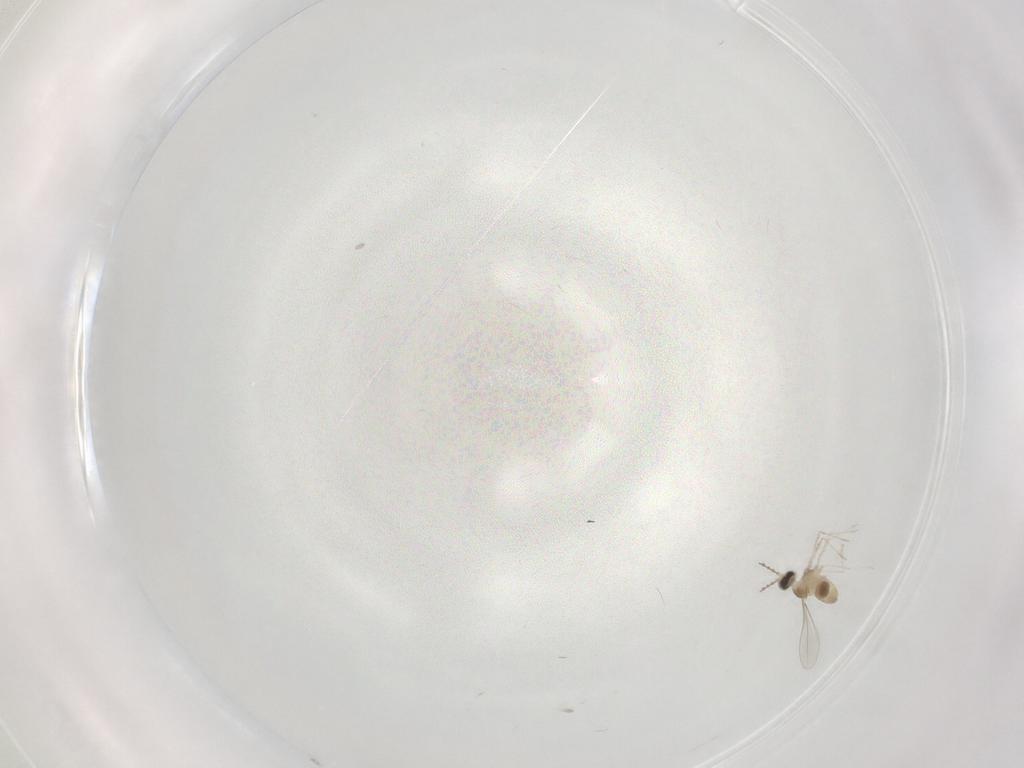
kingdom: Animalia
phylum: Arthropoda
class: Insecta
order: Diptera
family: Cecidomyiidae
